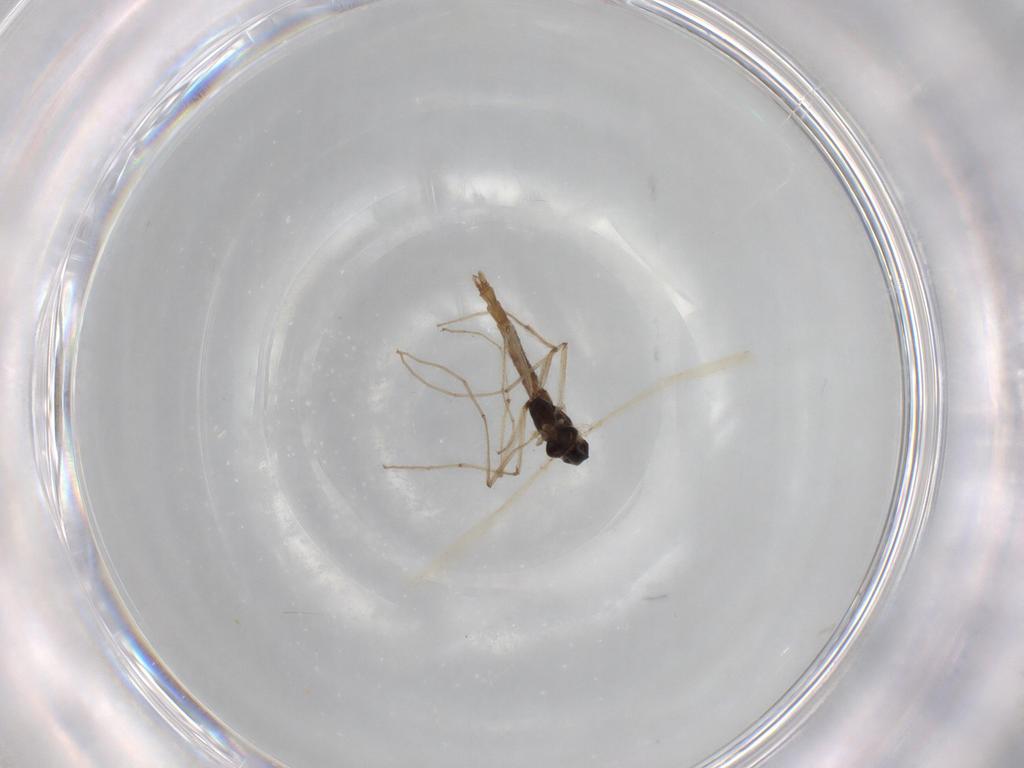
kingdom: Animalia
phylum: Arthropoda
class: Insecta
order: Diptera
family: Chironomidae
